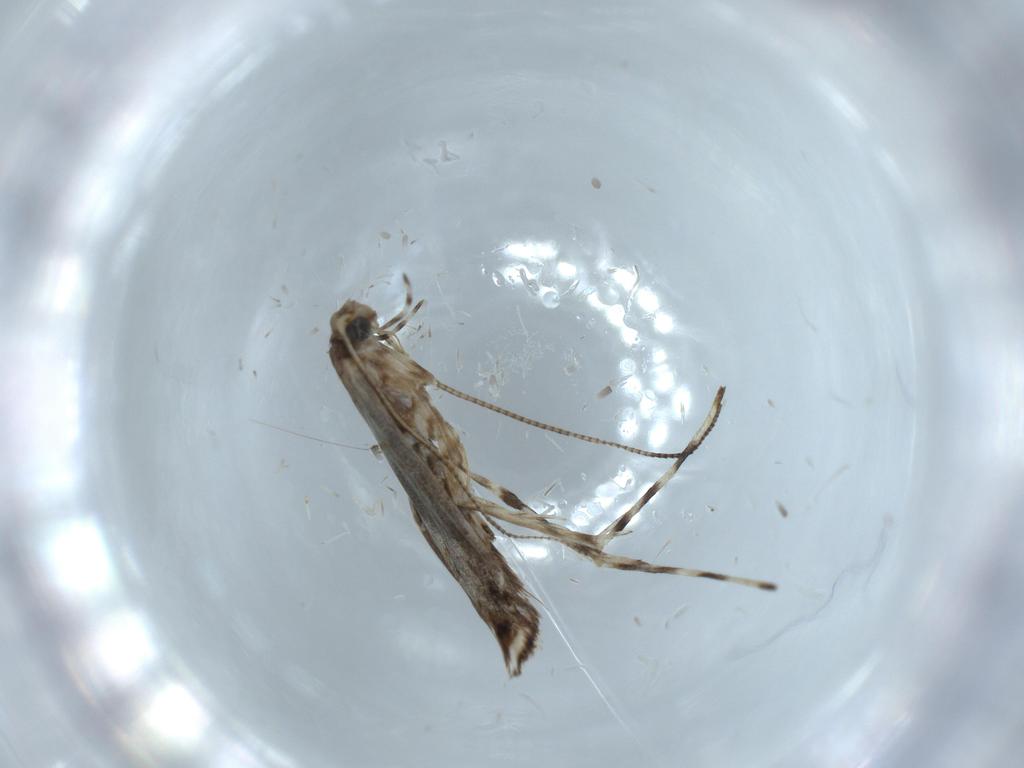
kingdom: Animalia
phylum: Arthropoda
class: Insecta
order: Lepidoptera
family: Gracillariidae
